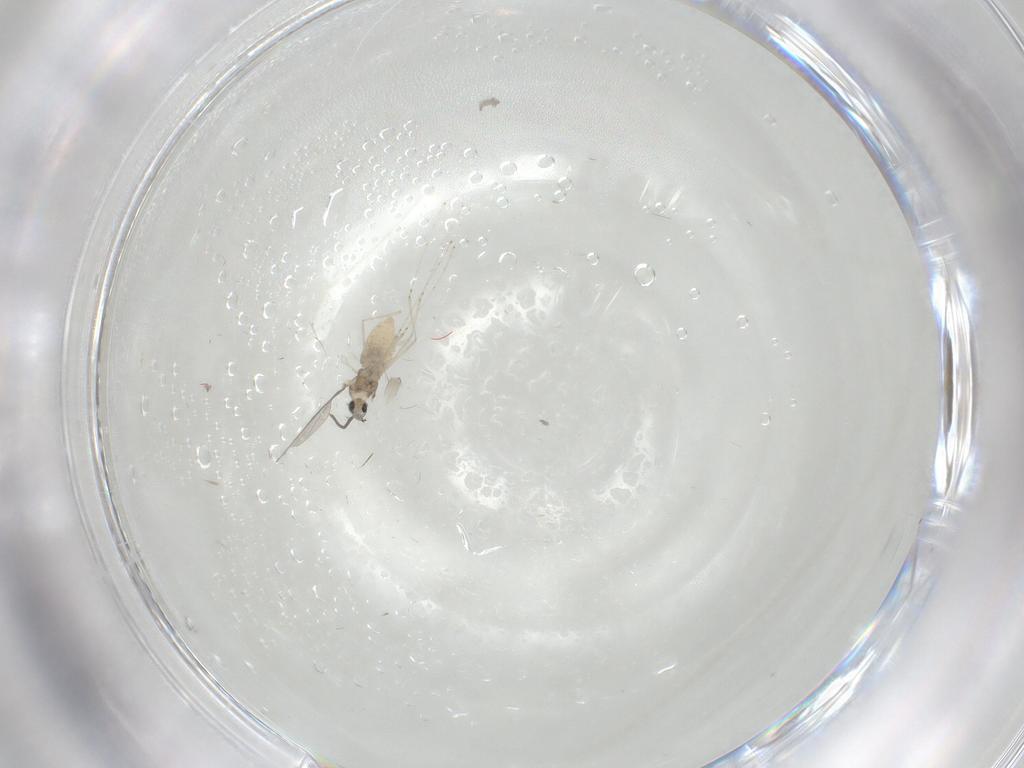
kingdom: Animalia
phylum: Arthropoda
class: Insecta
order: Diptera
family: Cecidomyiidae
